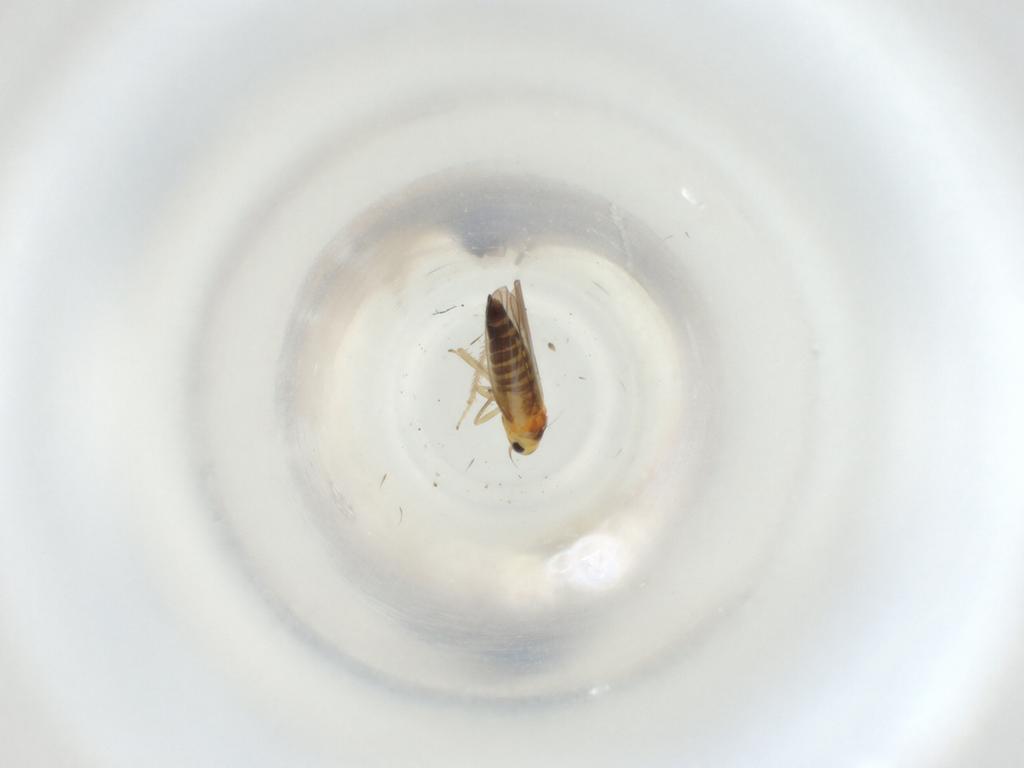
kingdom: Animalia
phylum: Arthropoda
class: Insecta
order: Hemiptera
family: Cicadellidae
